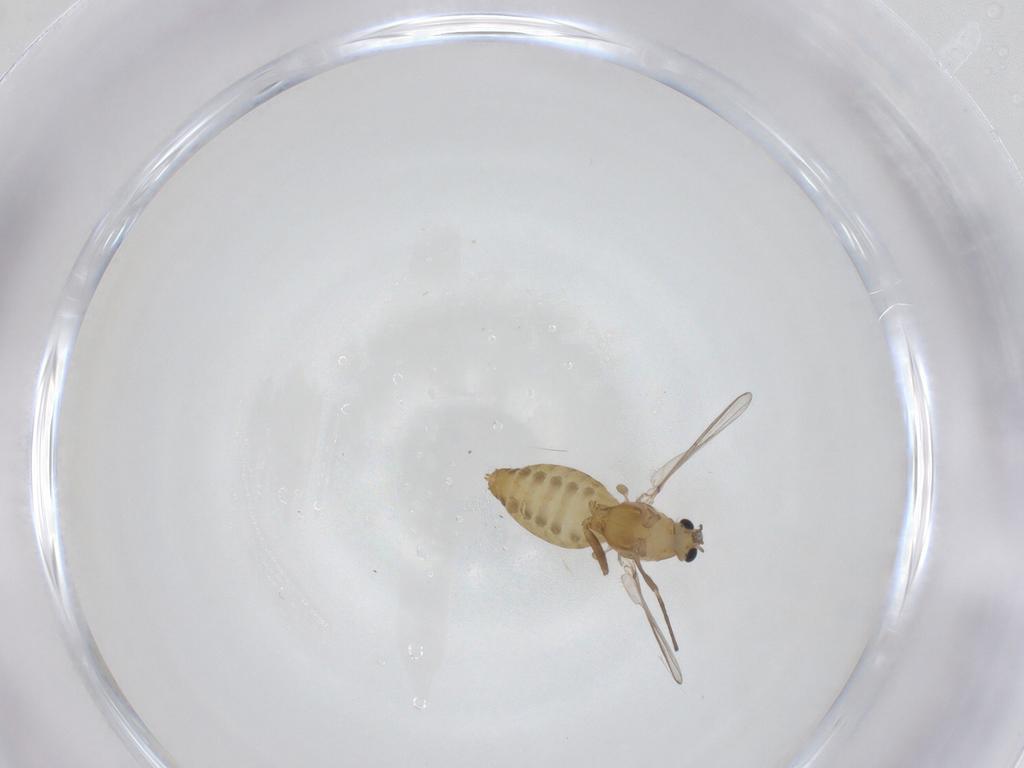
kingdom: Animalia
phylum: Arthropoda
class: Insecta
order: Diptera
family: Chironomidae
